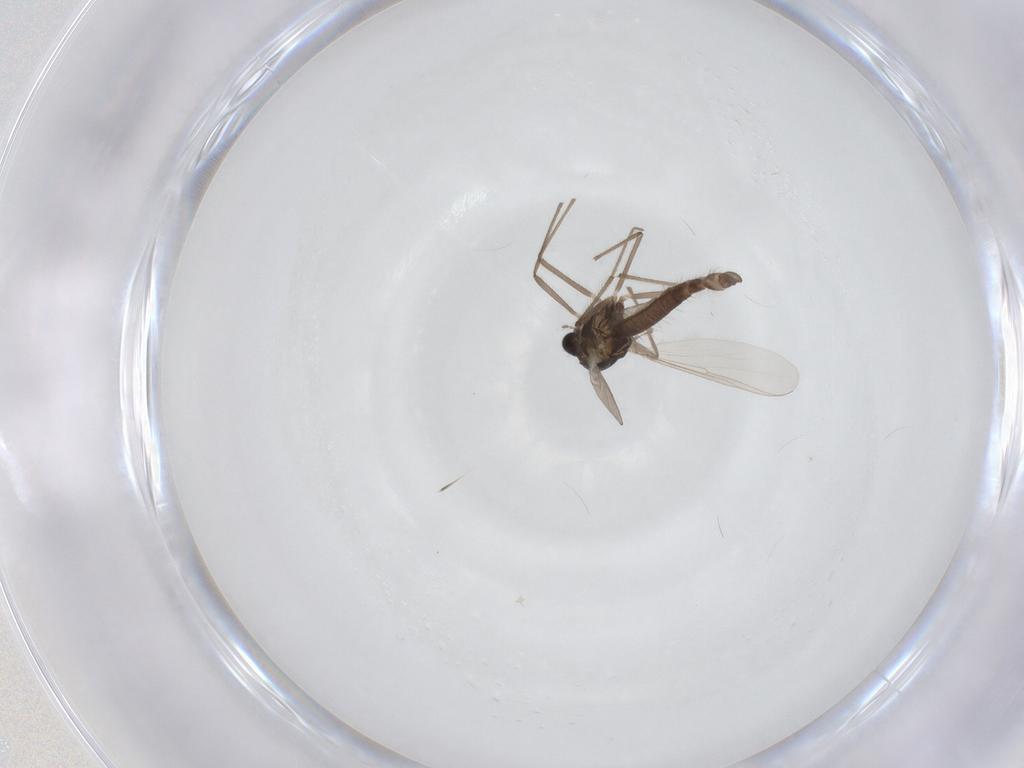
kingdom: Animalia
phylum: Arthropoda
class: Insecta
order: Diptera
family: Chironomidae
